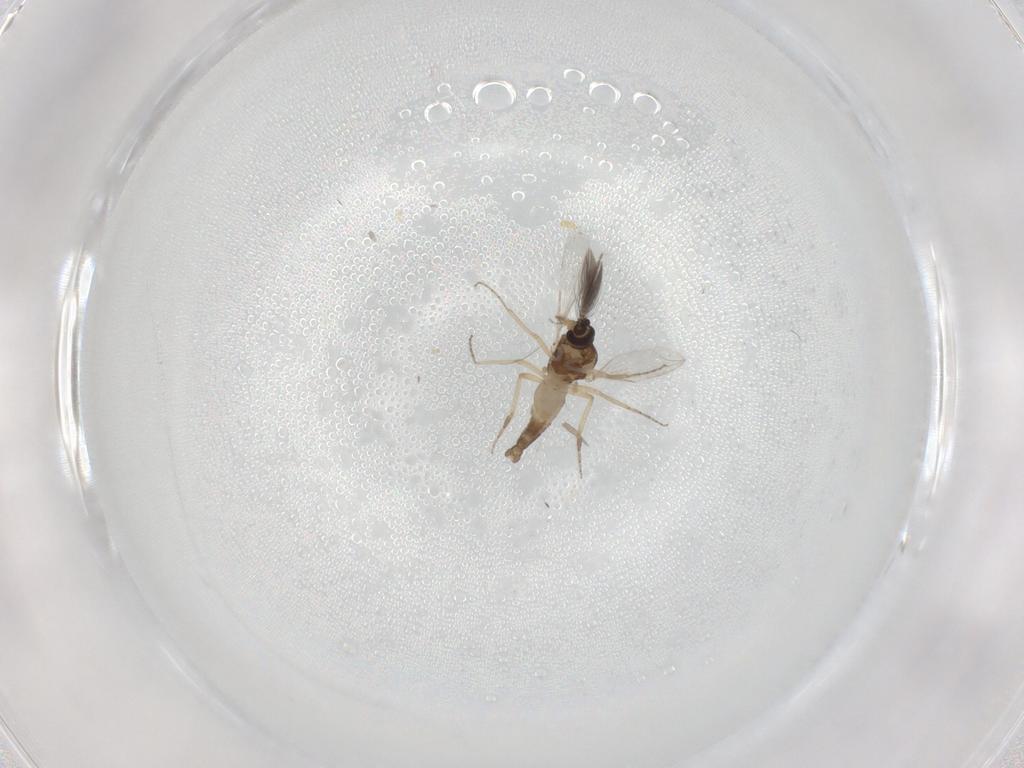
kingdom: Animalia
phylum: Arthropoda
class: Insecta
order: Diptera
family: Ceratopogonidae
